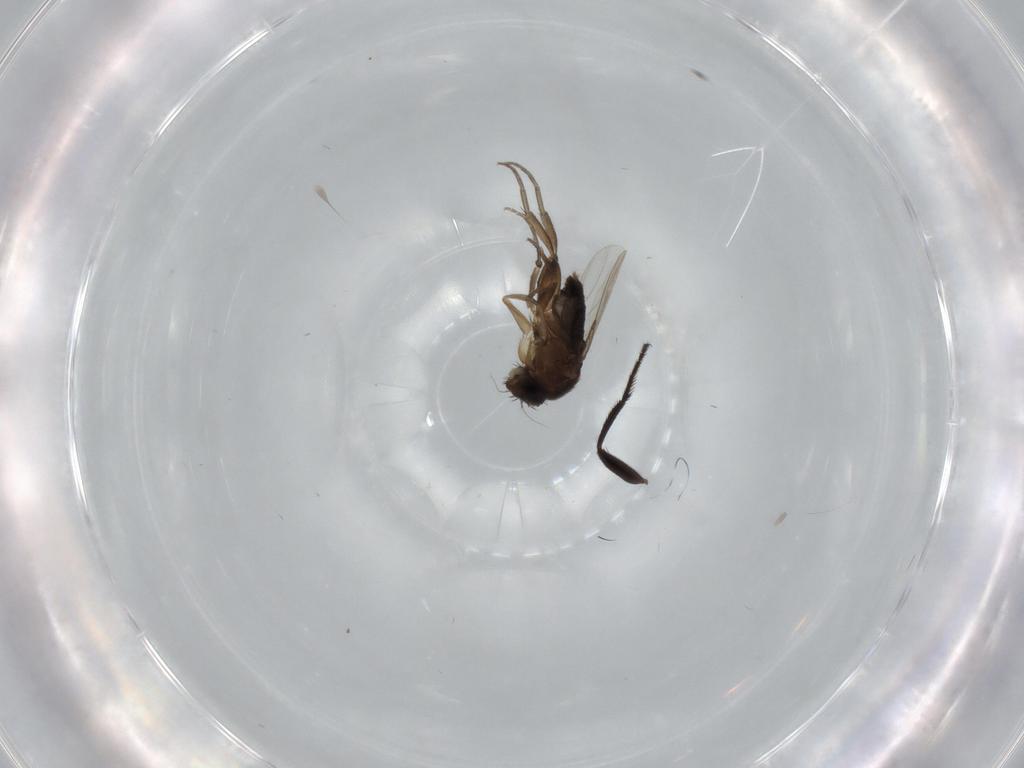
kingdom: Animalia
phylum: Arthropoda
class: Insecta
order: Diptera
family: Phoridae
